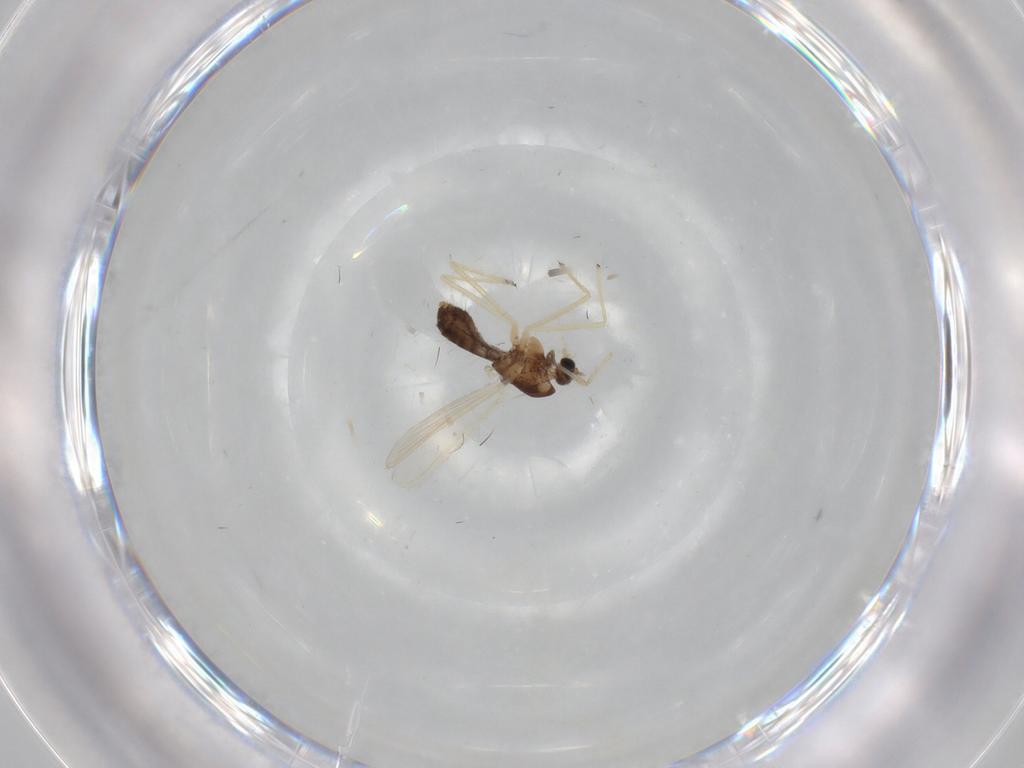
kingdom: Animalia
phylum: Arthropoda
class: Insecta
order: Diptera
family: Chironomidae
